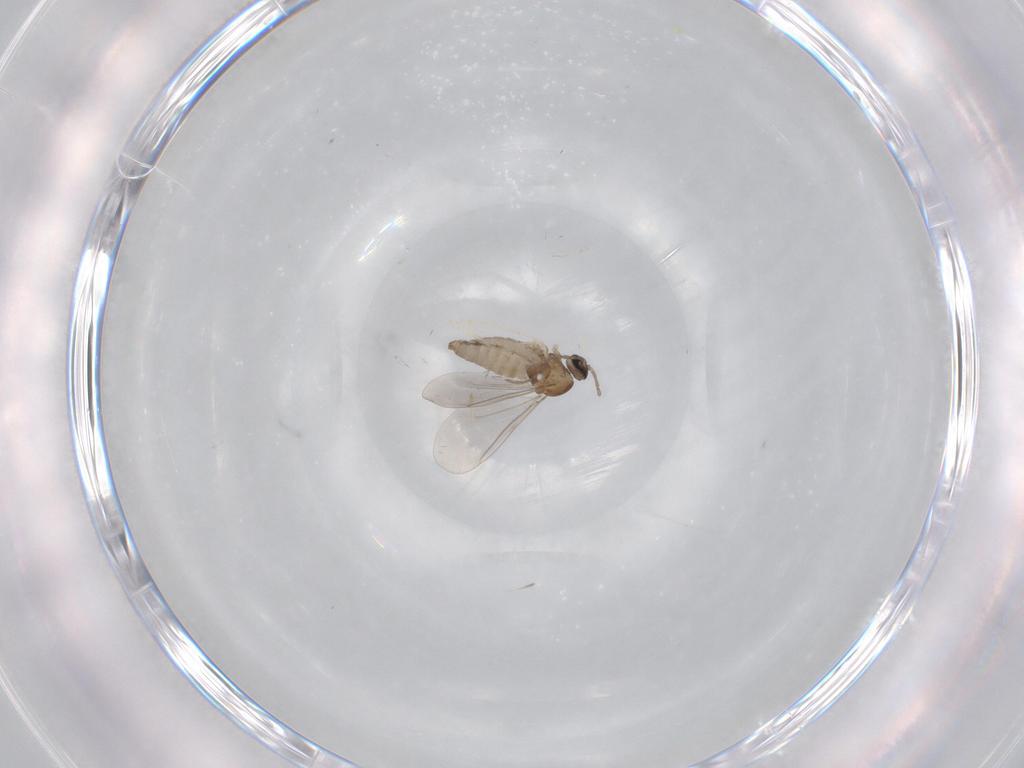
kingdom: Animalia
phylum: Arthropoda
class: Insecta
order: Diptera
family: Cecidomyiidae
